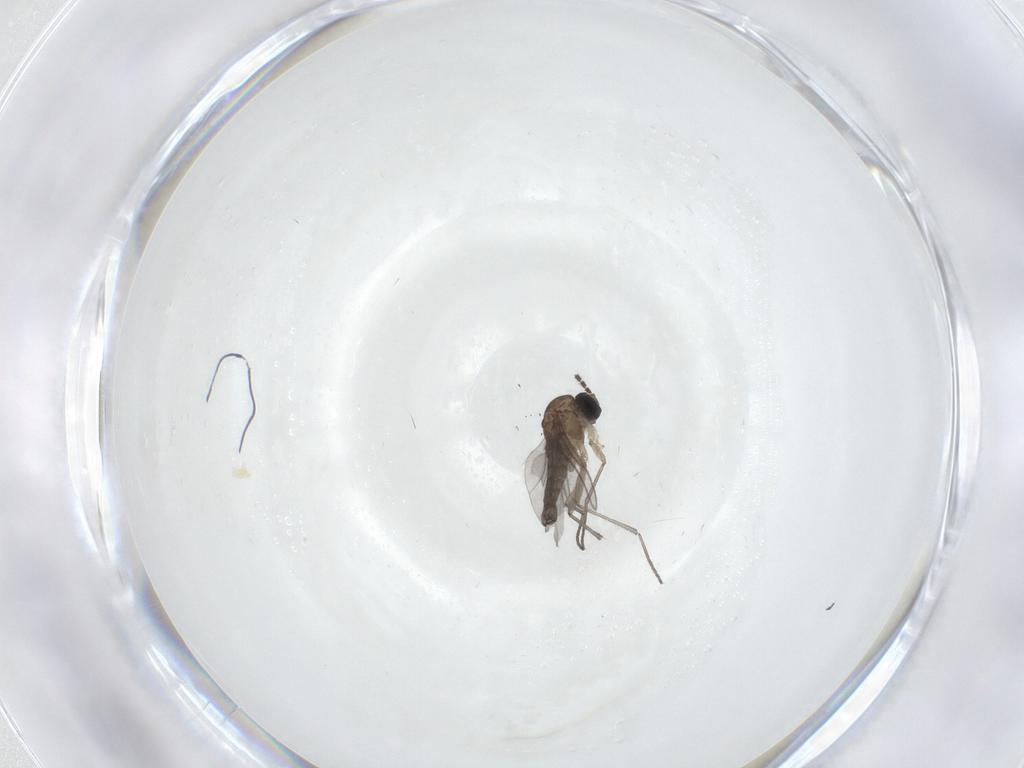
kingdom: Animalia
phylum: Arthropoda
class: Insecta
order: Diptera
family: Sciaridae
